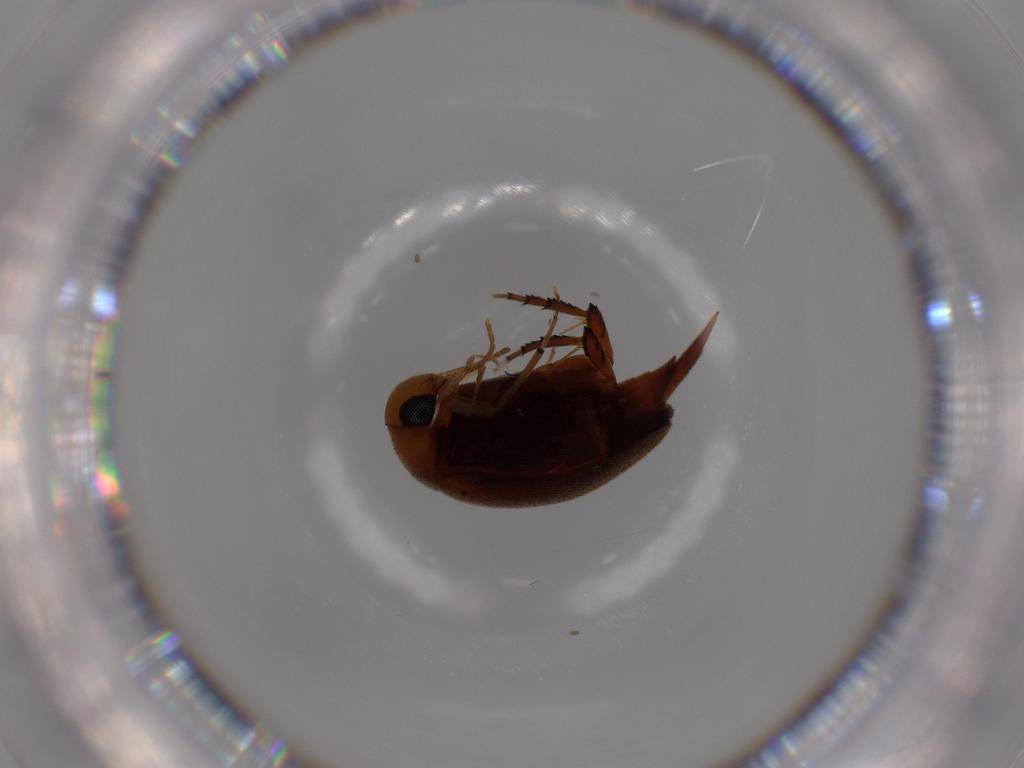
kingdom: Animalia
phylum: Arthropoda
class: Insecta
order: Coleoptera
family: Mordellidae
